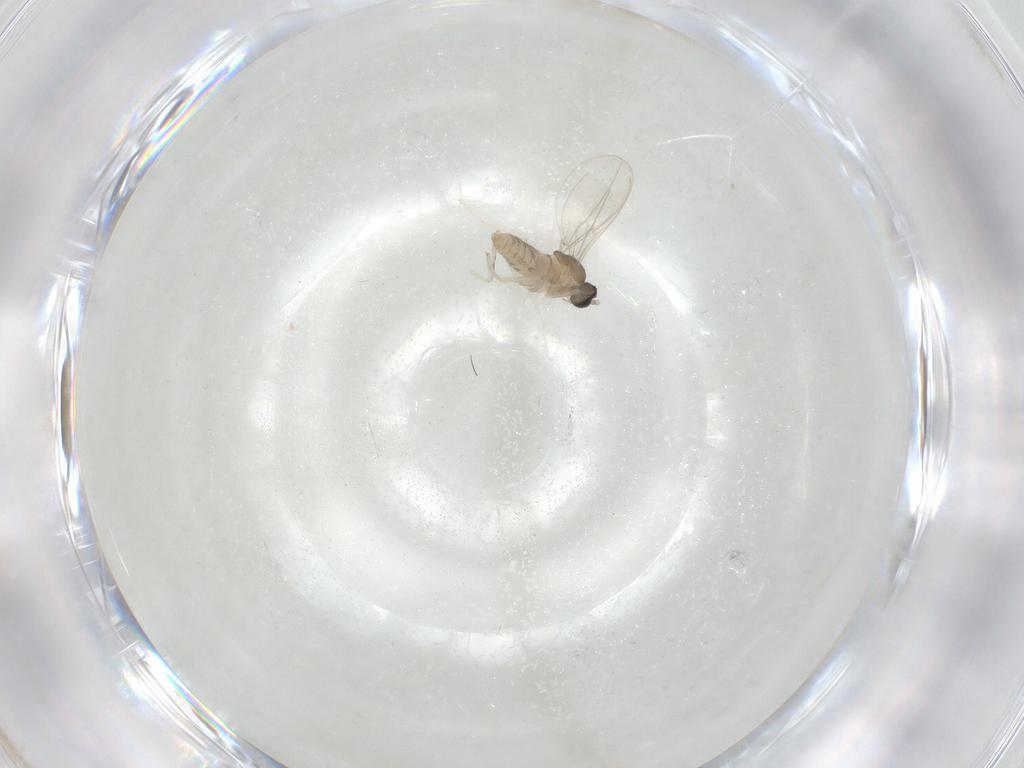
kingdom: Animalia
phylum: Arthropoda
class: Insecta
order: Diptera
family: Cecidomyiidae
